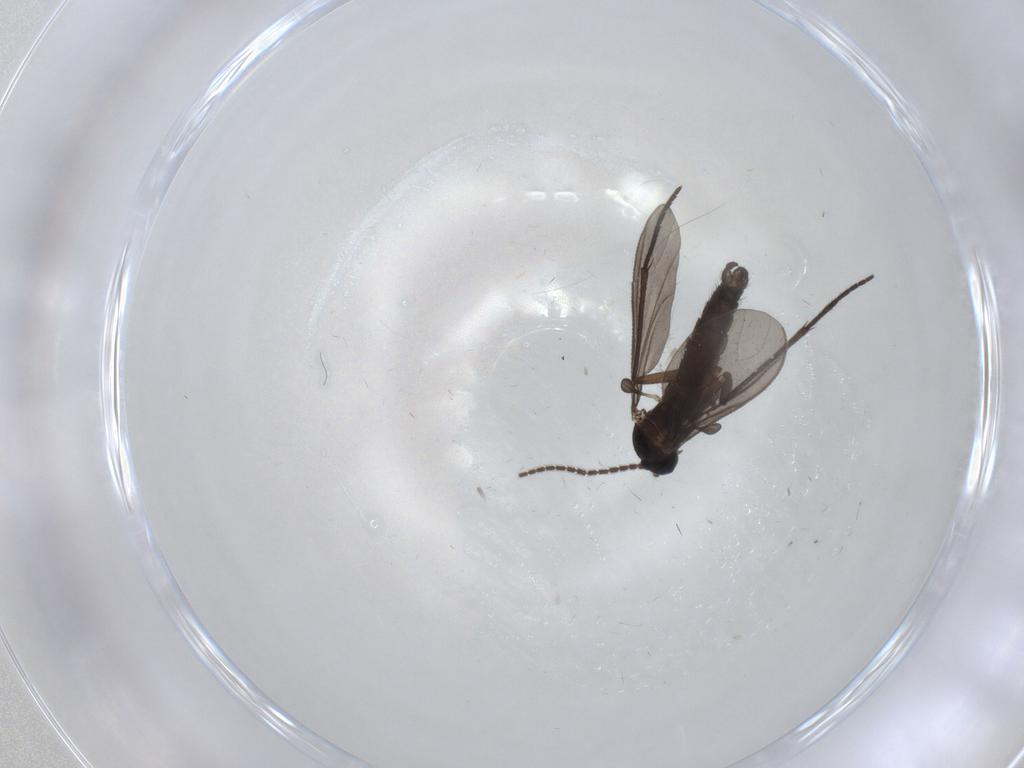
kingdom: Animalia
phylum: Arthropoda
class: Insecta
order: Diptera
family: Sciaridae
